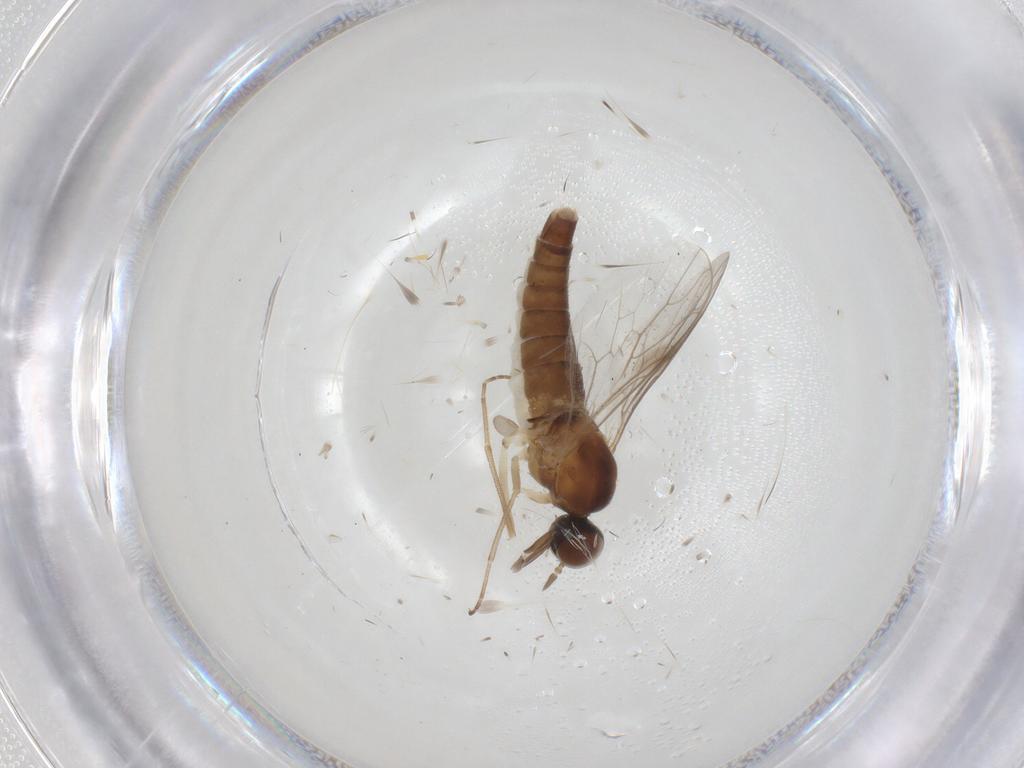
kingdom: Animalia
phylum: Arthropoda
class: Insecta
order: Diptera
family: Scenopinidae
